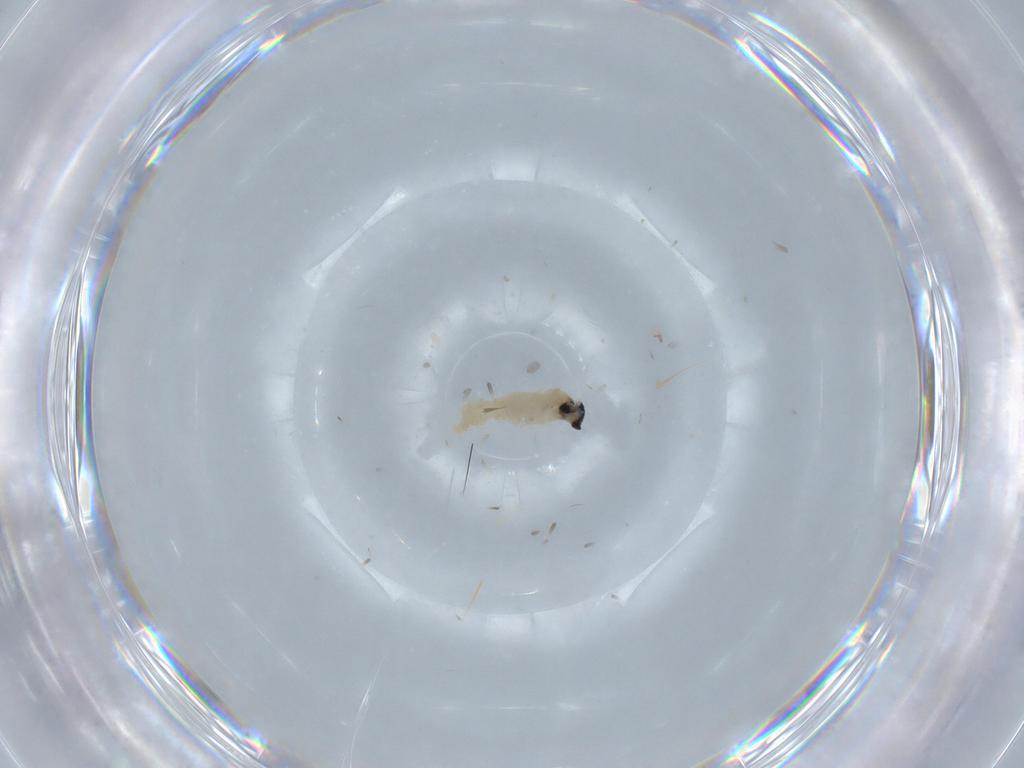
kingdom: Animalia
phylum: Arthropoda
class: Insecta
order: Diptera
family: Cecidomyiidae
